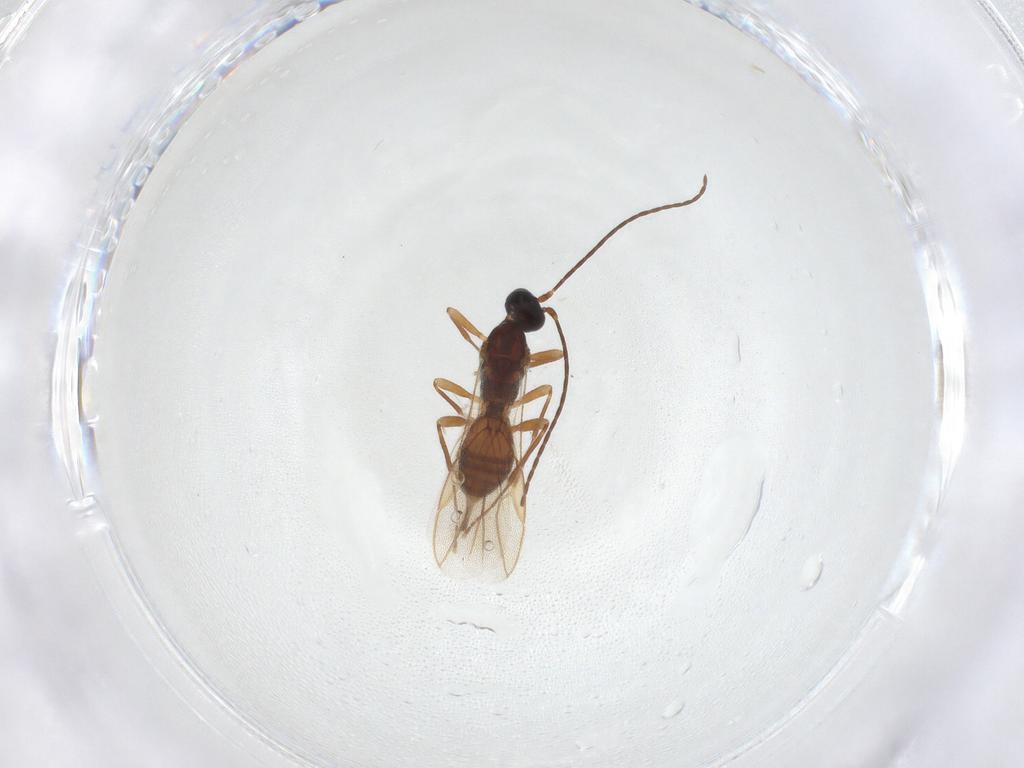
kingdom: Animalia
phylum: Arthropoda
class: Insecta
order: Hymenoptera
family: Braconidae
